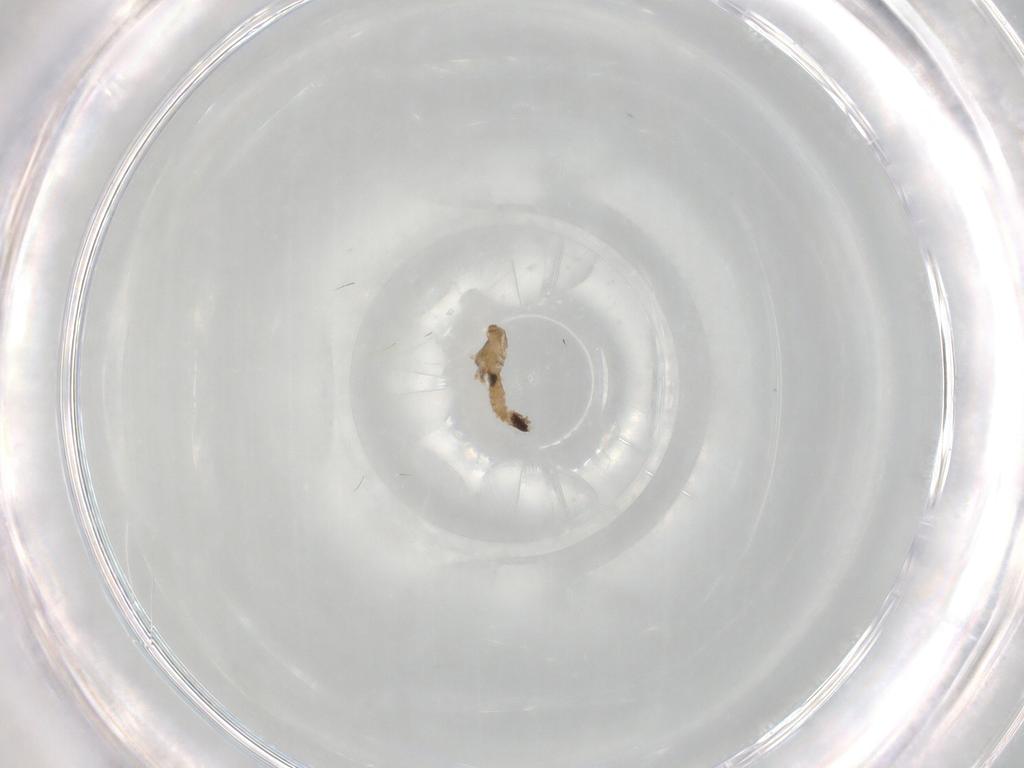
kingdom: Animalia
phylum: Arthropoda
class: Insecta
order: Diptera
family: Syrphidae
